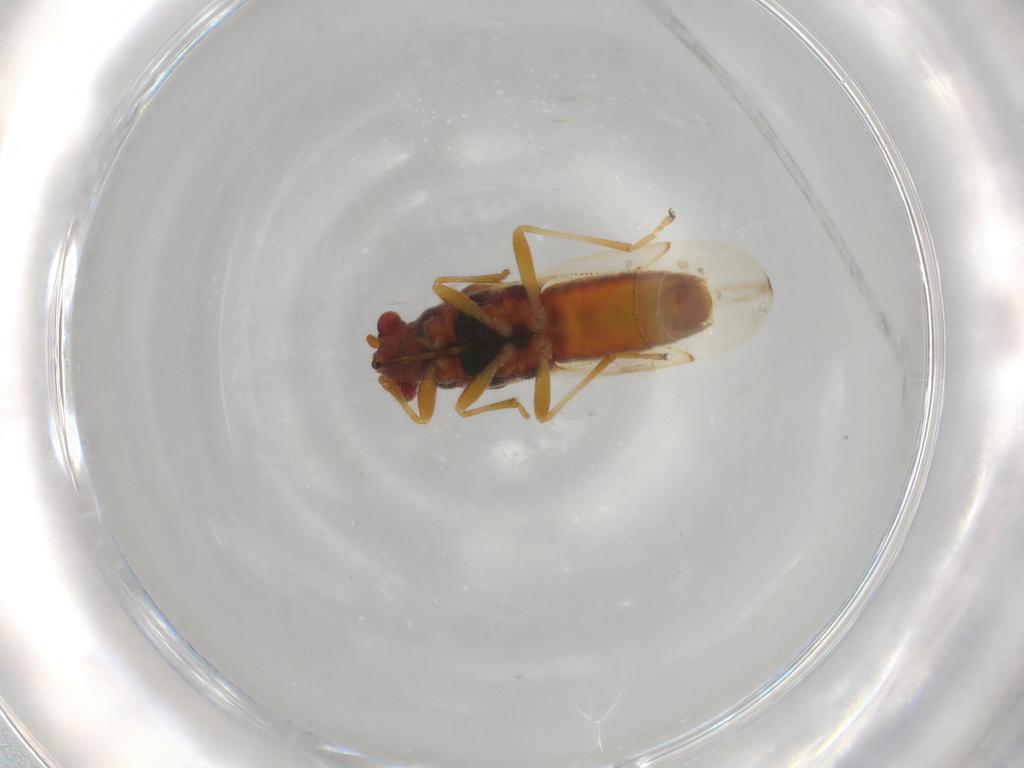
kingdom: Animalia
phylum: Arthropoda
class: Insecta
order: Hemiptera
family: Coreidae
